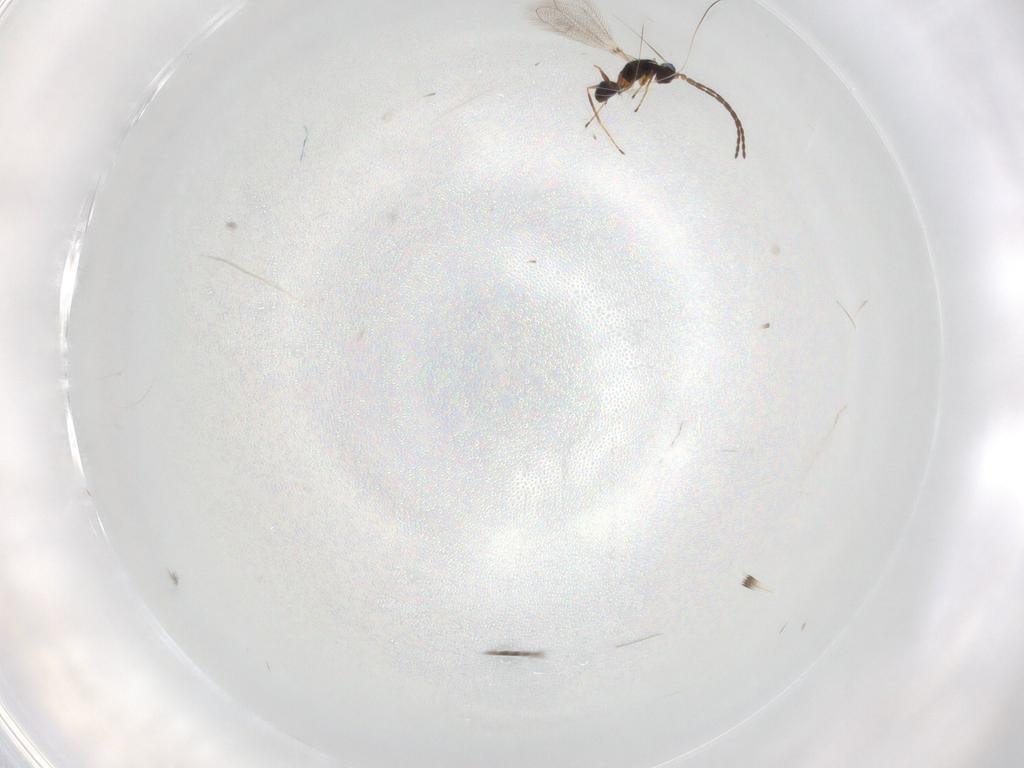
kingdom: Animalia
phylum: Arthropoda
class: Insecta
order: Hymenoptera
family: Mymaridae
